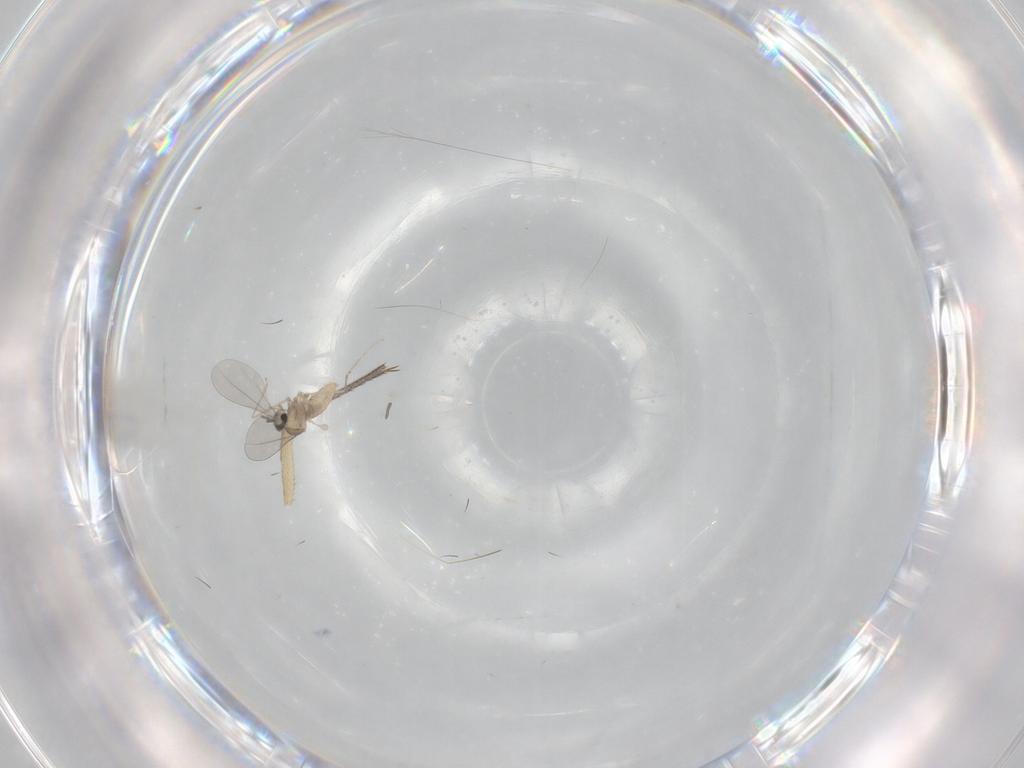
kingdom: Animalia
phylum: Arthropoda
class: Insecta
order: Diptera
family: Sciaridae
